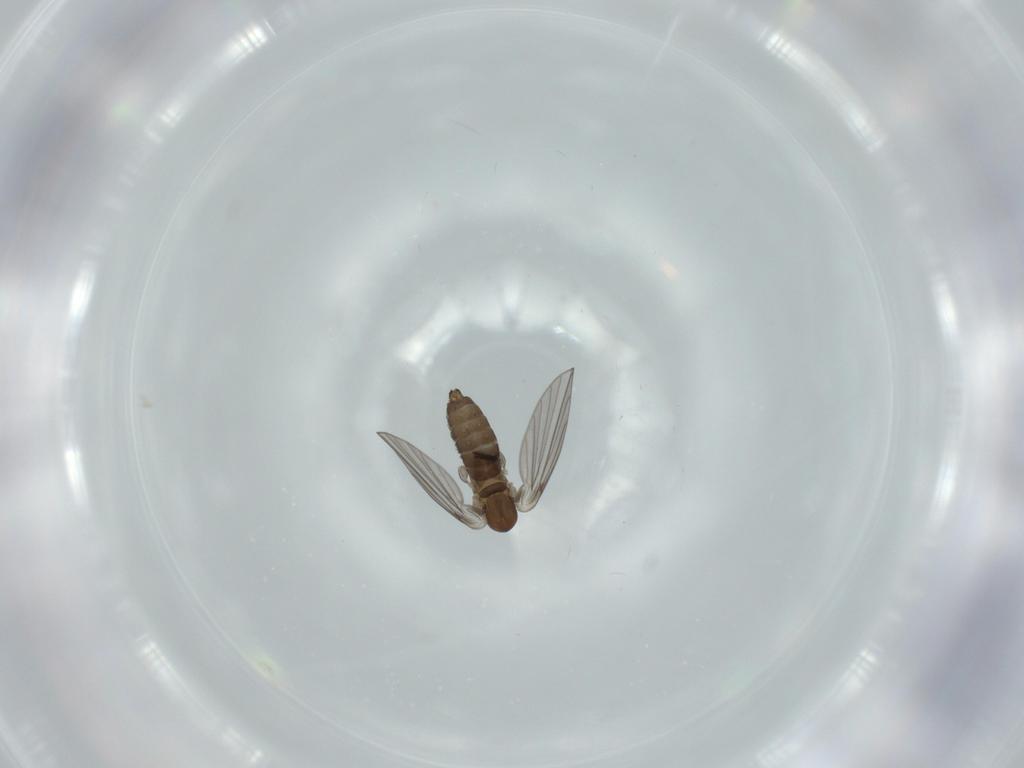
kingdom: Animalia
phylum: Arthropoda
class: Insecta
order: Diptera
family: Psychodidae
